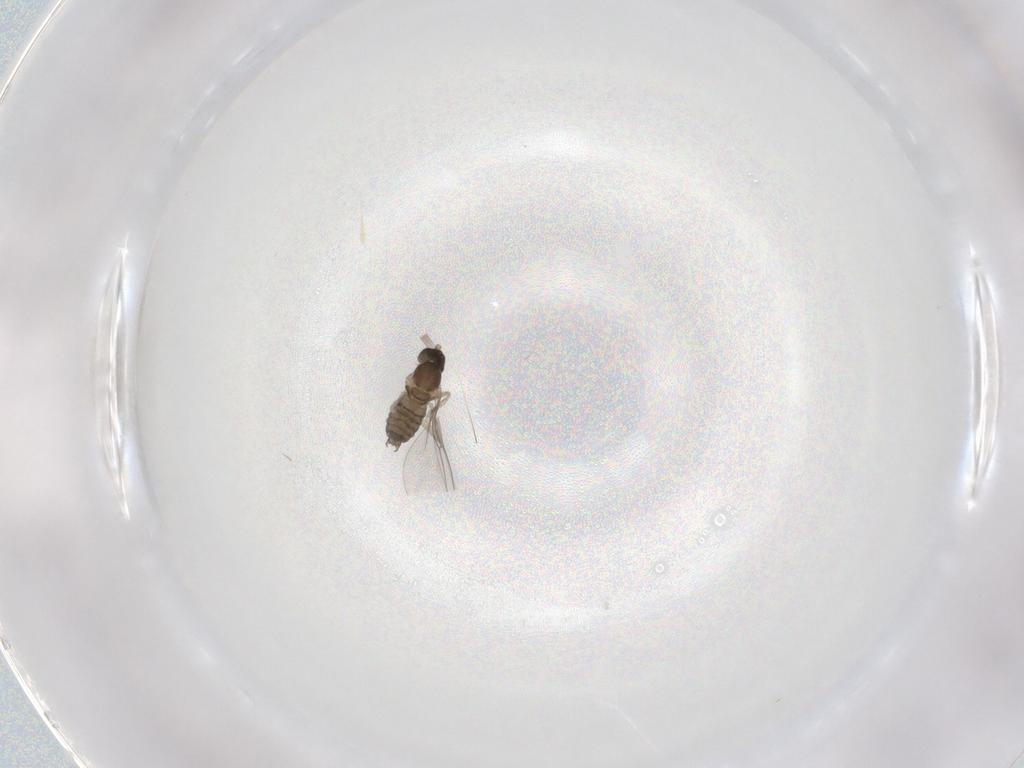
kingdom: Animalia
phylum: Arthropoda
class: Insecta
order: Diptera
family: Cecidomyiidae
